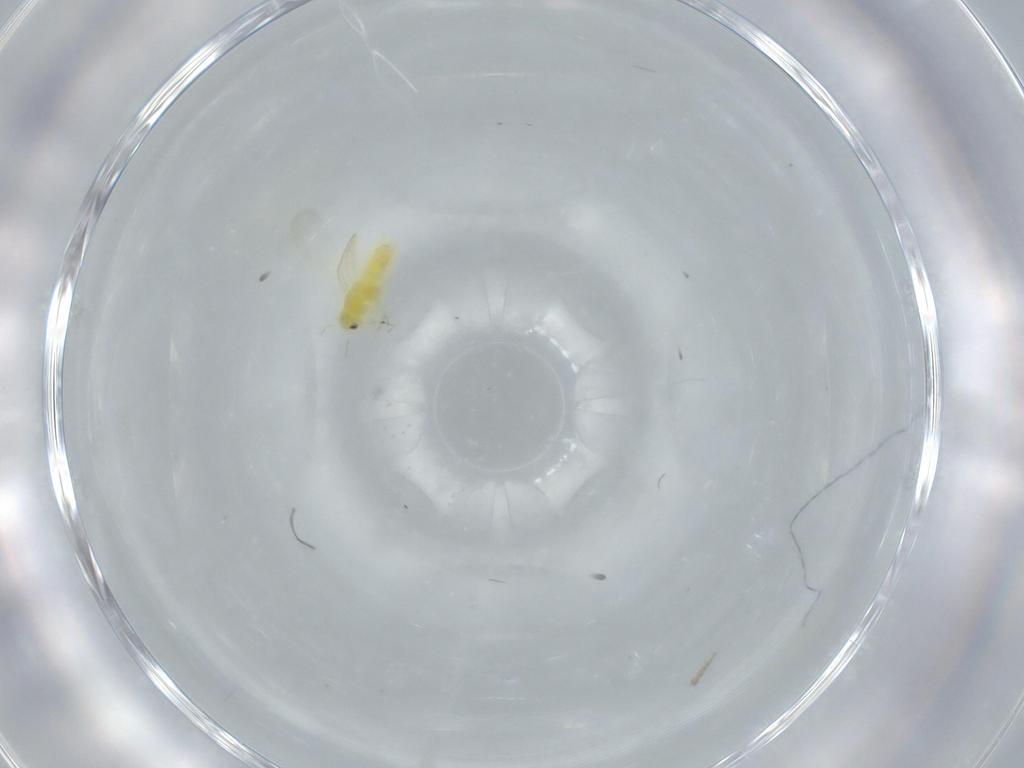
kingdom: Animalia
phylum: Arthropoda
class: Insecta
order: Hemiptera
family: Aleyrodidae
